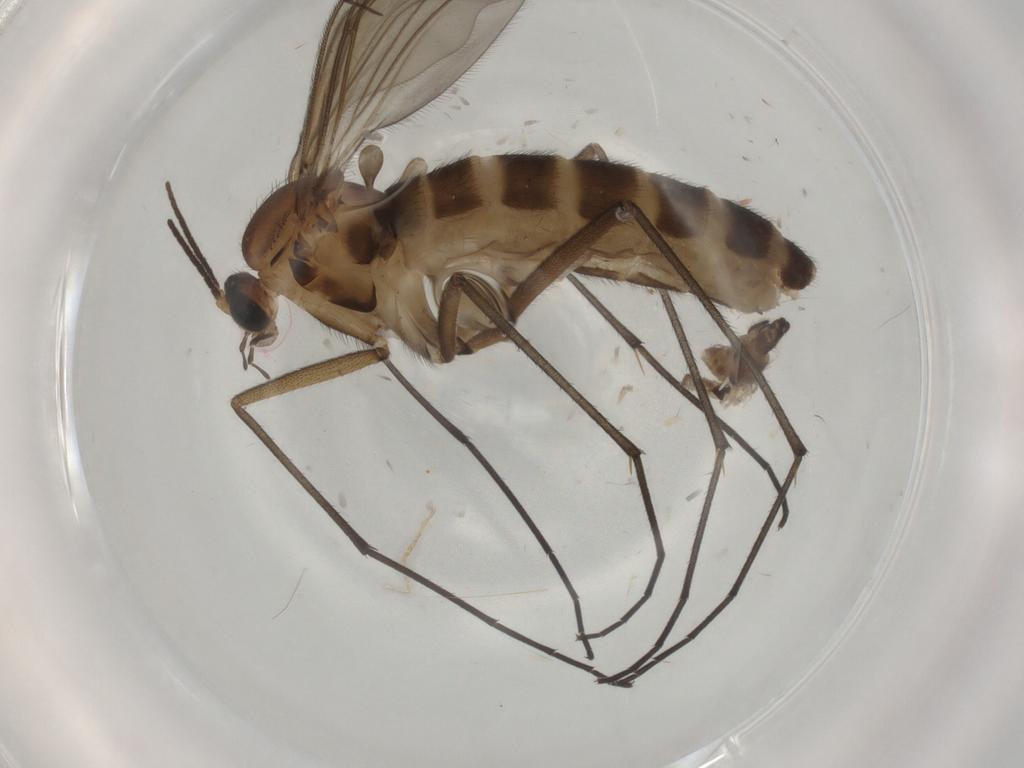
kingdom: Animalia
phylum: Arthropoda
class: Insecta
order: Diptera
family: Sciaridae
